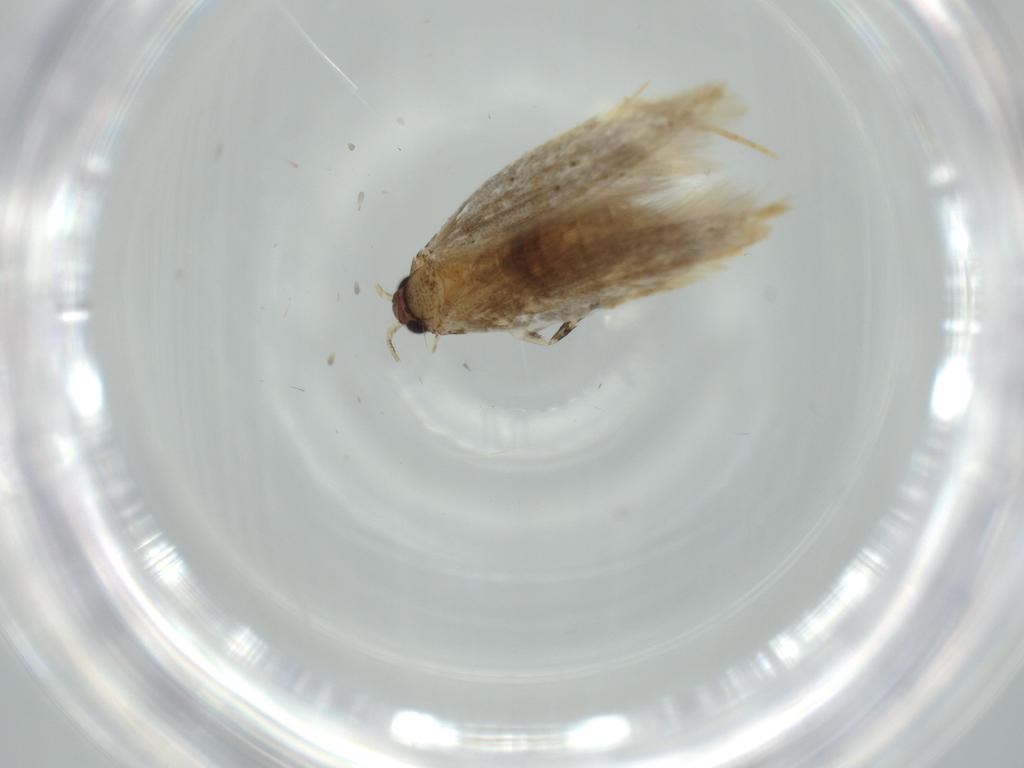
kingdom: Animalia
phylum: Arthropoda
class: Insecta
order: Lepidoptera
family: Tineidae
